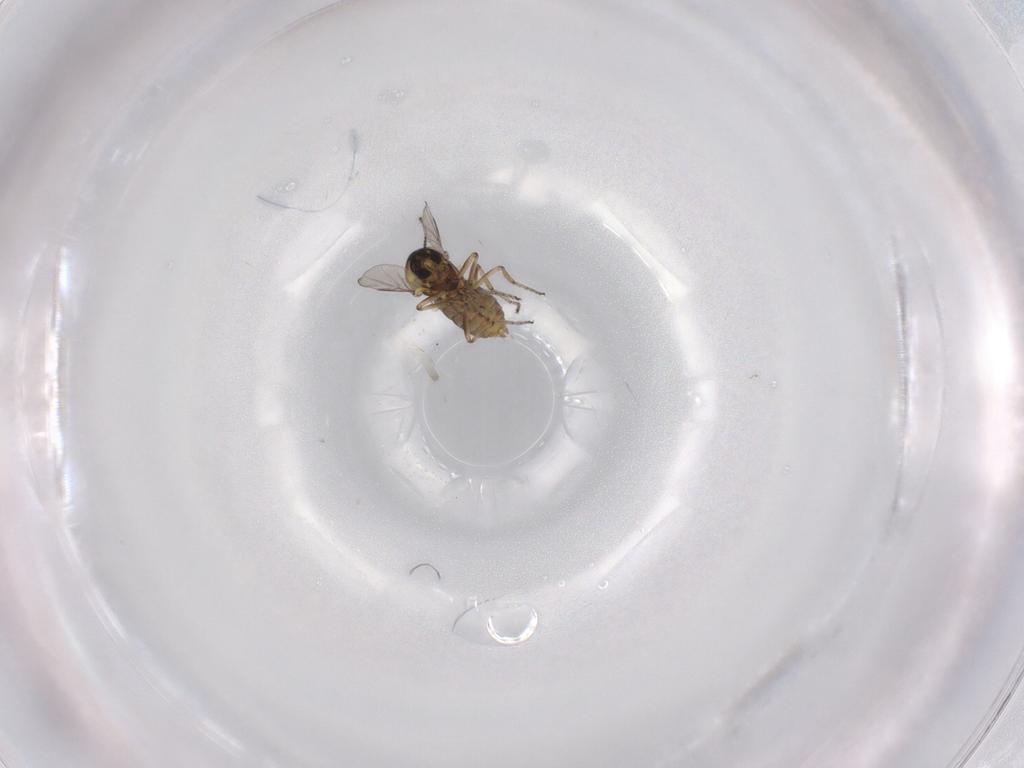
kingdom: Animalia
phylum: Arthropoda
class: Insecta
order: Diptera
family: Ceratopogonidae
